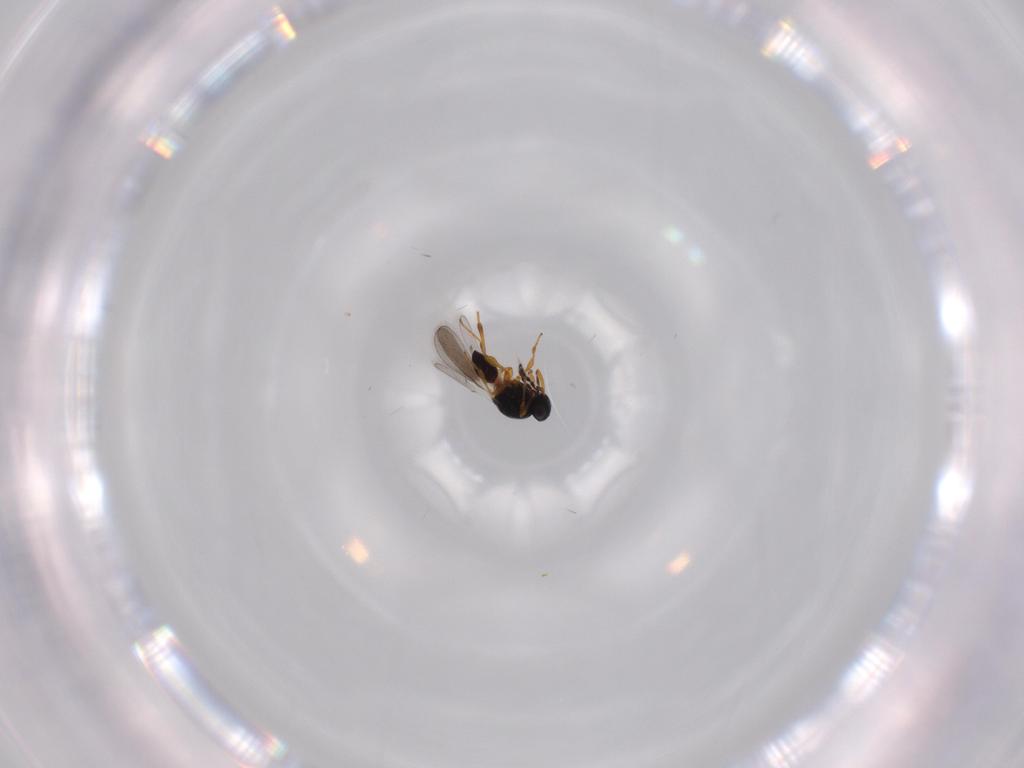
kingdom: Animalia
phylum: Arthropoda
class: Insecta
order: Hymenoptera
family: Platygastridae
